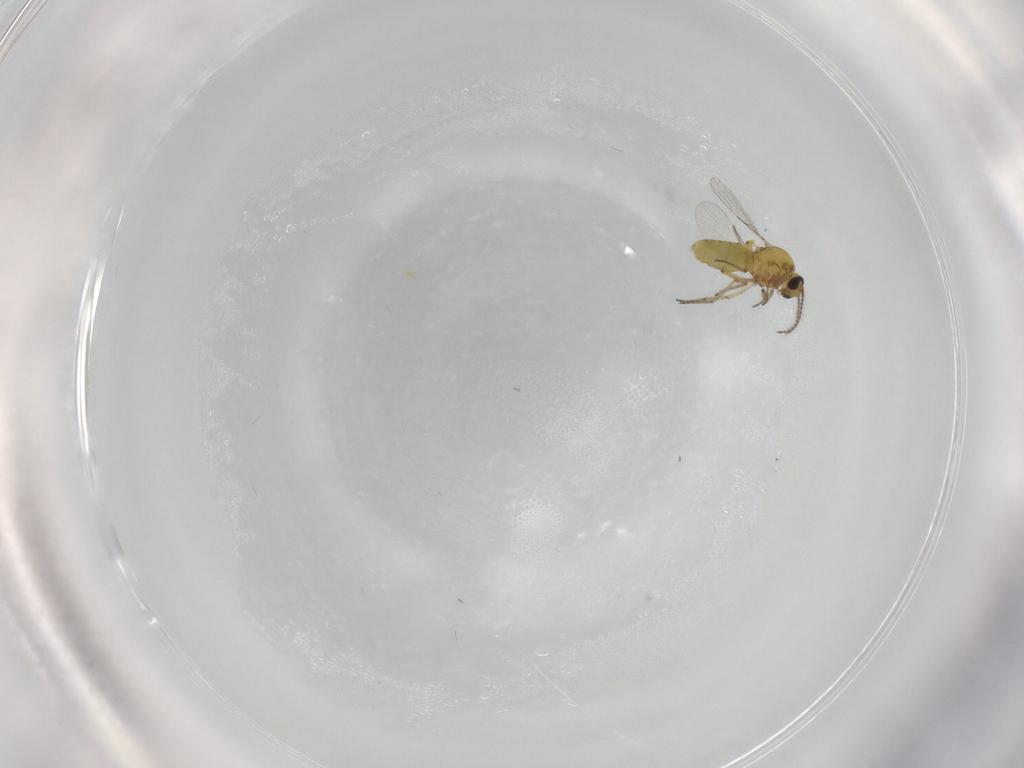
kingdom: Animalia
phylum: Arthropoda
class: Insecta
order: Diptera
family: Ceratopogonidae
